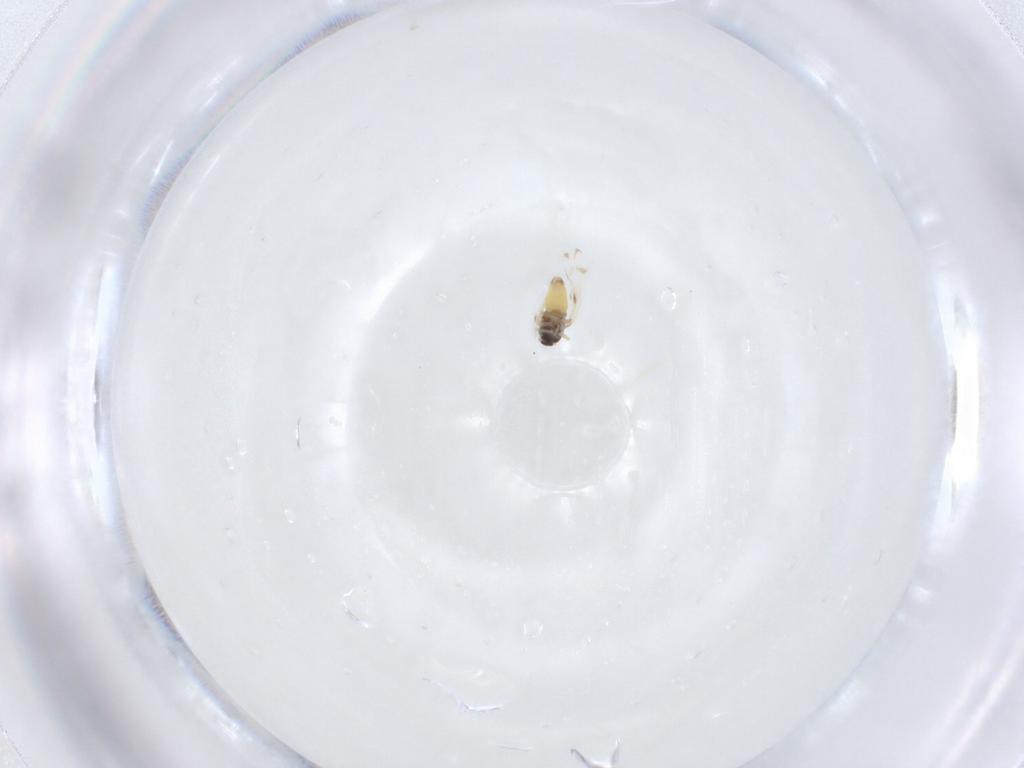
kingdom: Animalia
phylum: Arthropoda
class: Insecta
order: Hemiptera
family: Aleyrodidae
